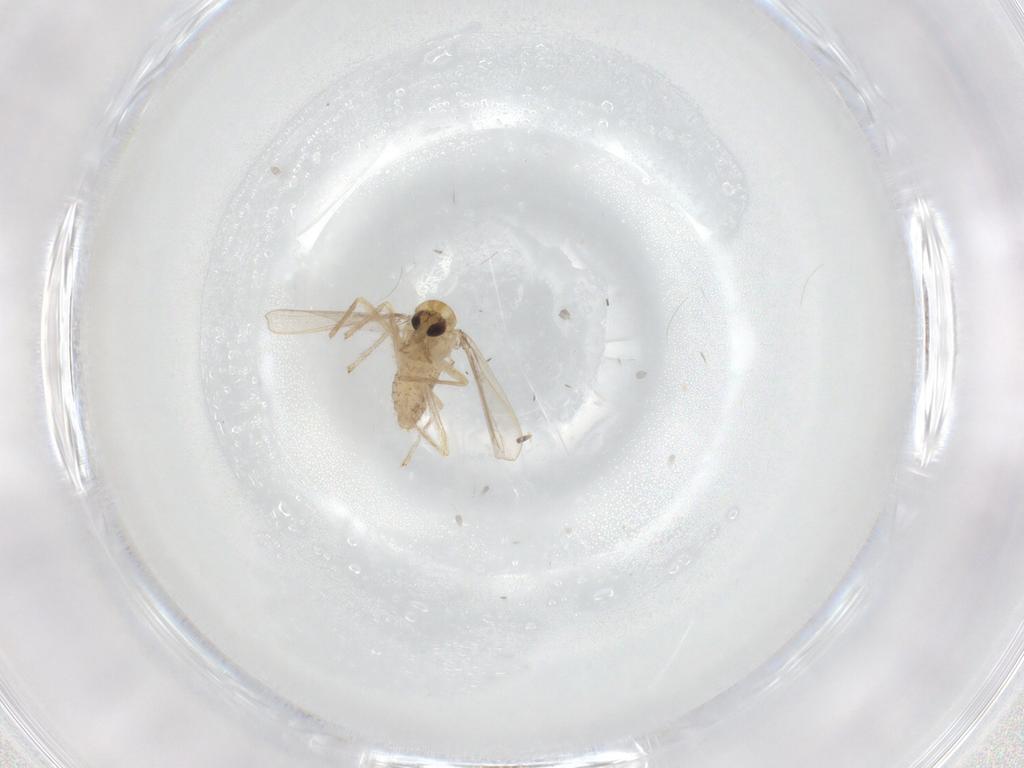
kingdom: Animalia
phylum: Arthropoda
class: Insecta
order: Diptera
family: Chironomidae
